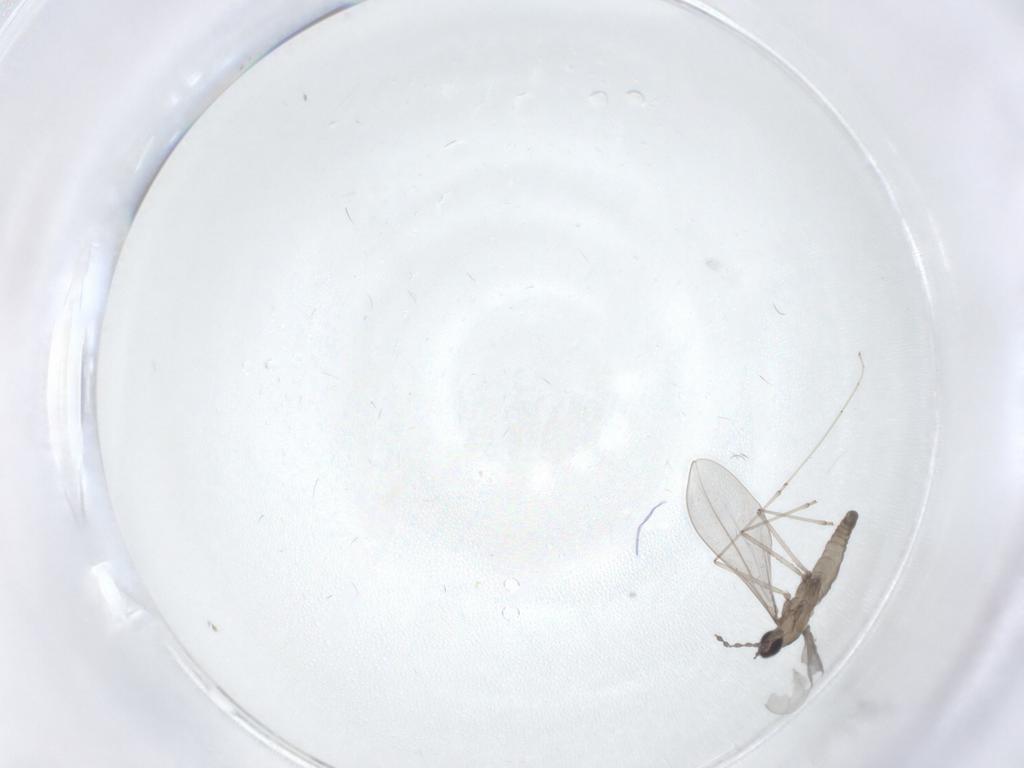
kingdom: Animalia
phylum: Arthropoda
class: Insecta
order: Diptera
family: Cecidomyiidae
